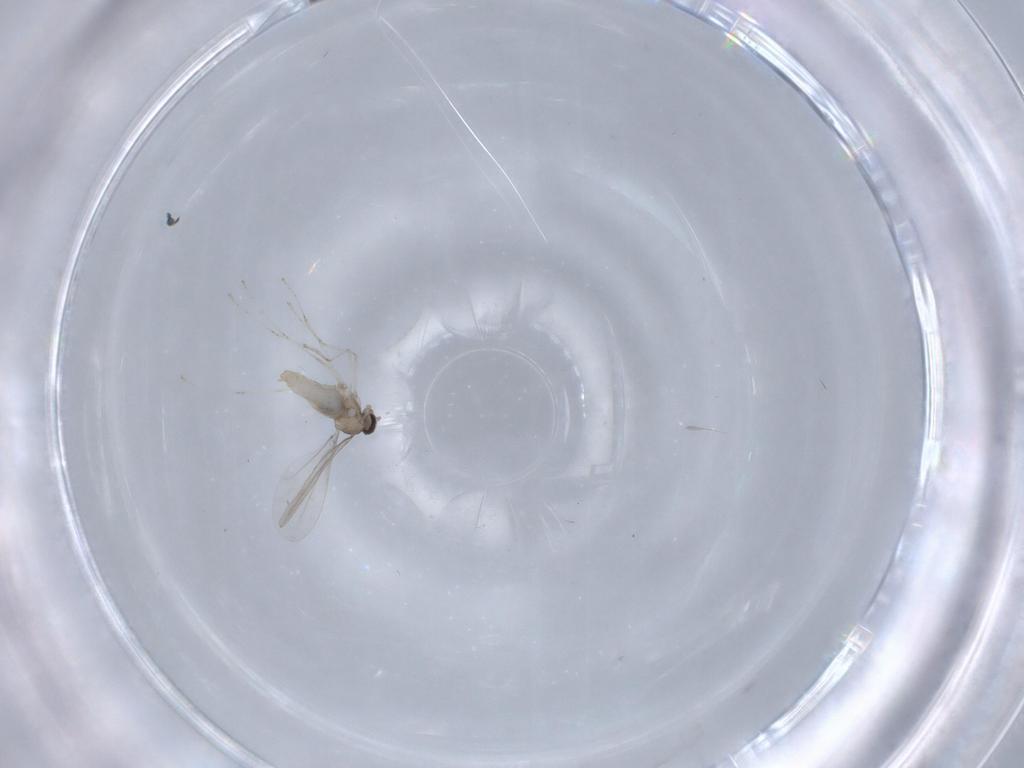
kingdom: Animalia
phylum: Arthropoda
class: Insecta
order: Diptera
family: Cecidomyiidae
